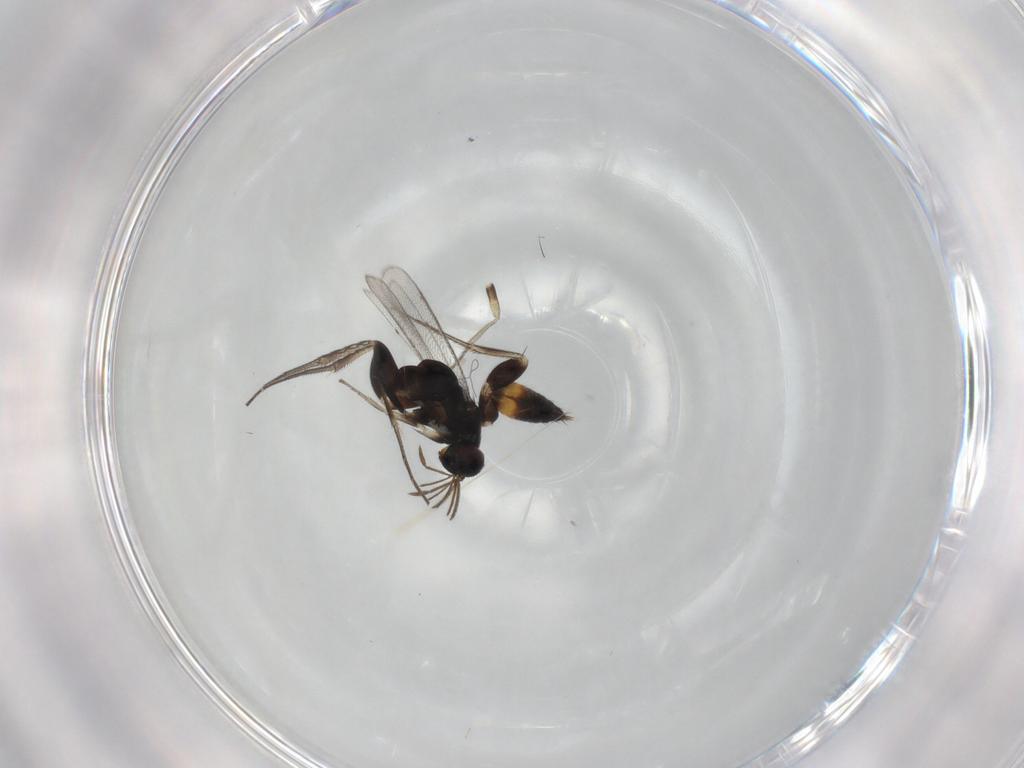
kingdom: Animalia
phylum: Arthropoda
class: Insecta
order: Hymenoptera
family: Eulophidae
